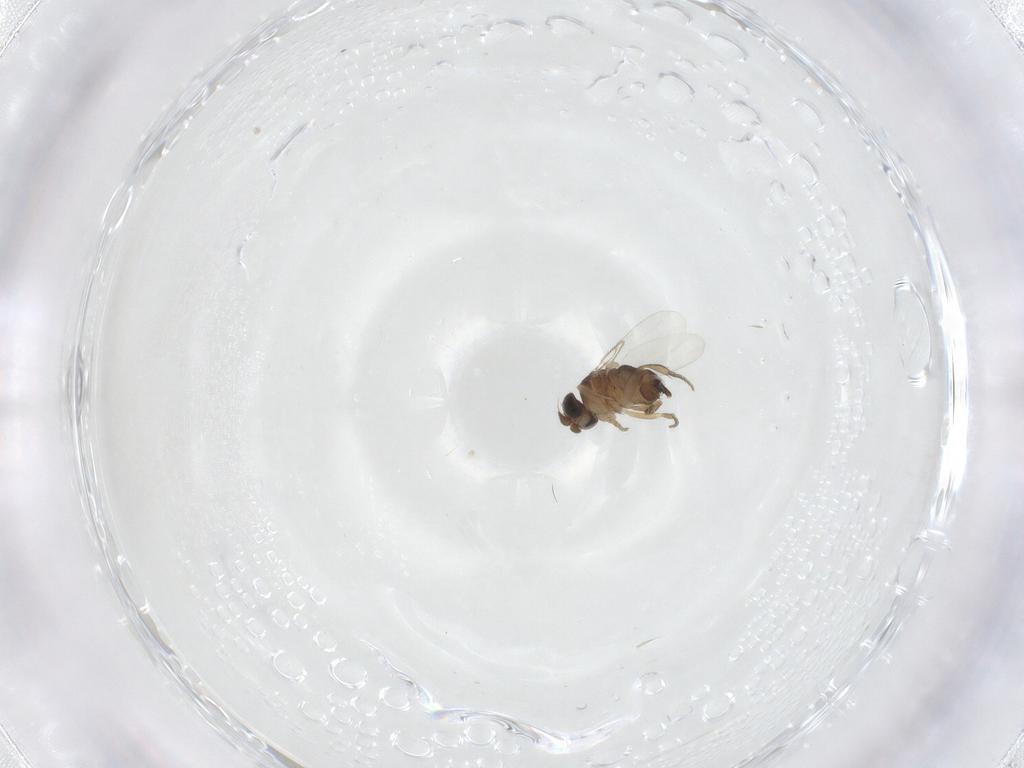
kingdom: Animalia
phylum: Arthropoda
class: Insecta
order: Diptera
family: Phoridae
